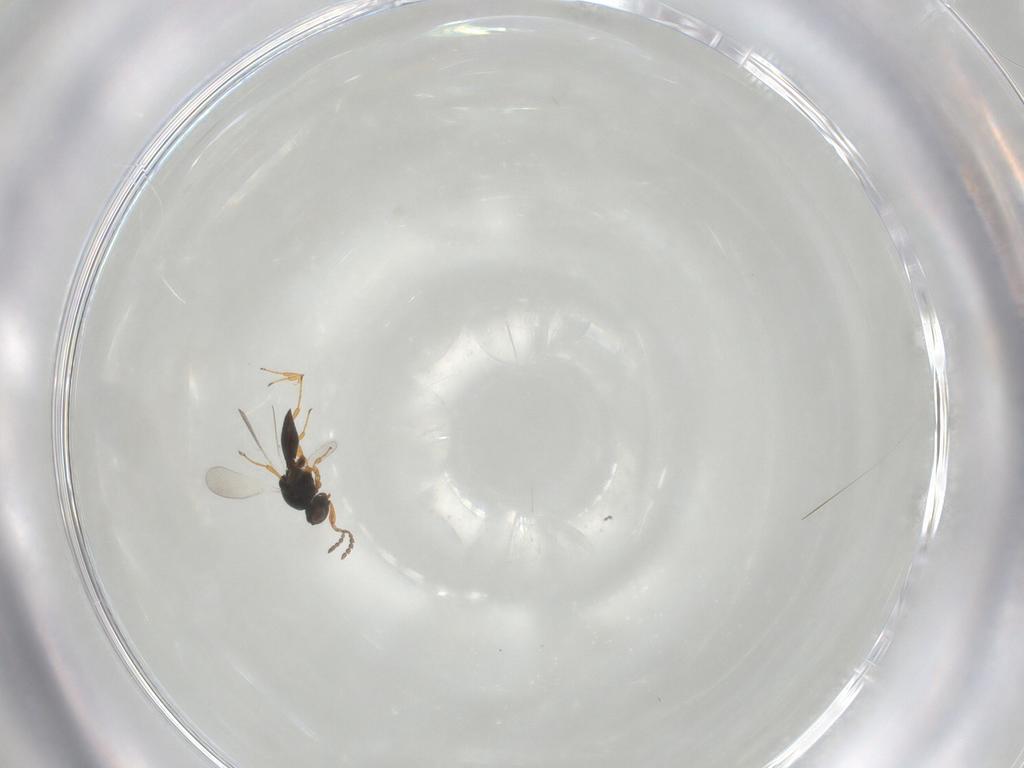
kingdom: Animalia
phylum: Arthropoda
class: Insecta
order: Hymenoptera
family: Platygastridae
